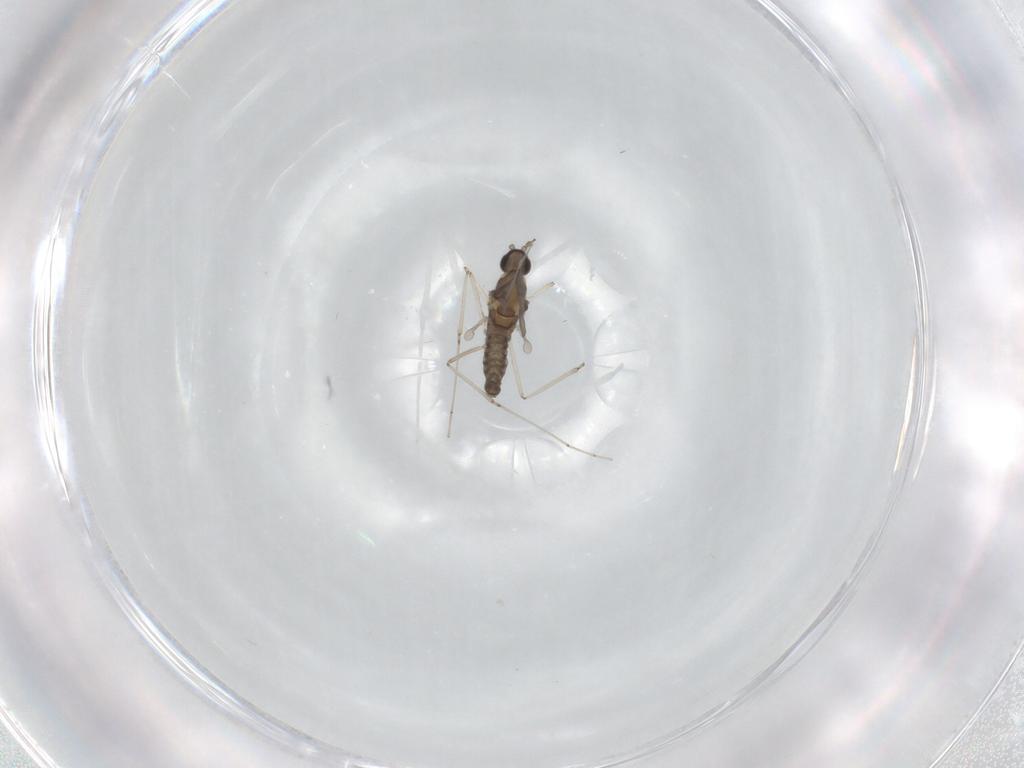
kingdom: Animalia
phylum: Arthropoda
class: Insecta
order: Diptera
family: Cecidomyiidae
